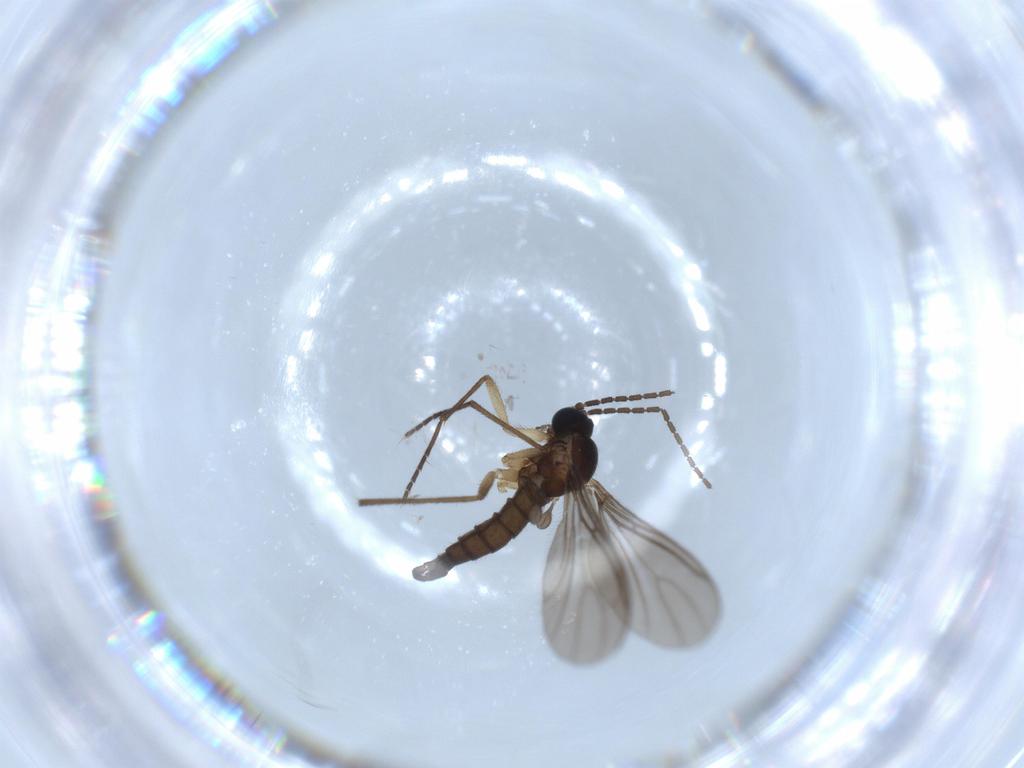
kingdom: Animalia
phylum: Arthropoda
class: Insecta
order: Diptera
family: Sciaridae
